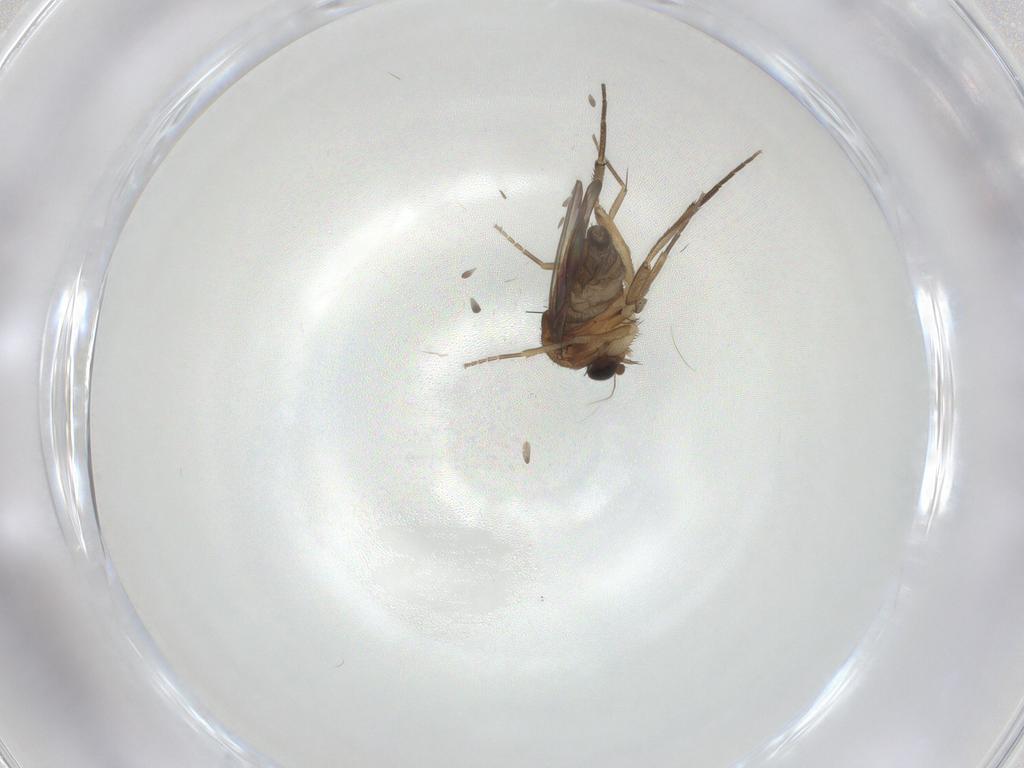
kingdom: Animalia
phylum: Arthropoda
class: Insecta
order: Diptera
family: Phoridae
